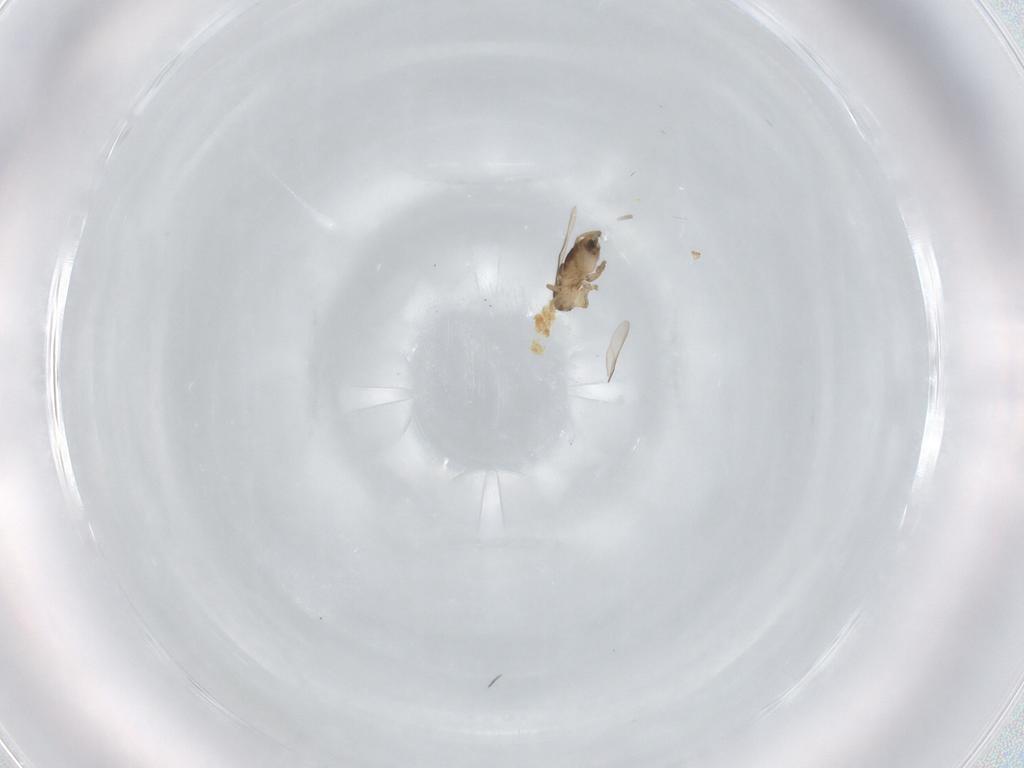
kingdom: Animalia
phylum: Arthropoda
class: Insecta
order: Diptera
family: Phoridae
